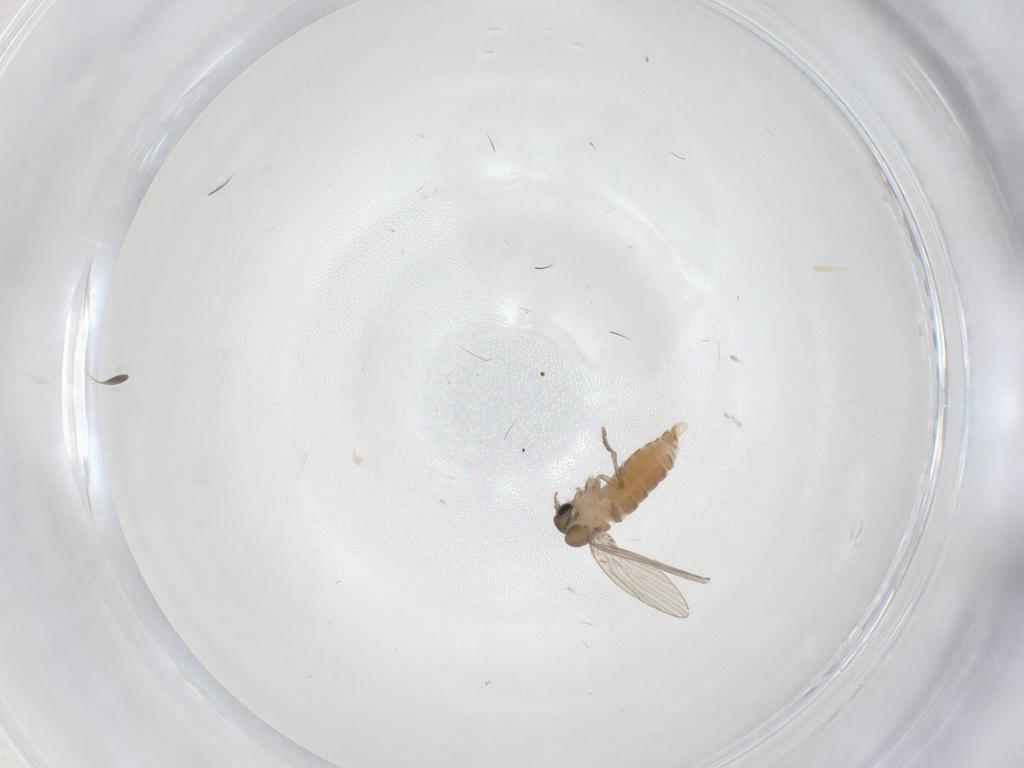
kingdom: Animalia
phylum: Arthropoda
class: Insecta
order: Diptera
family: Psychodidae
